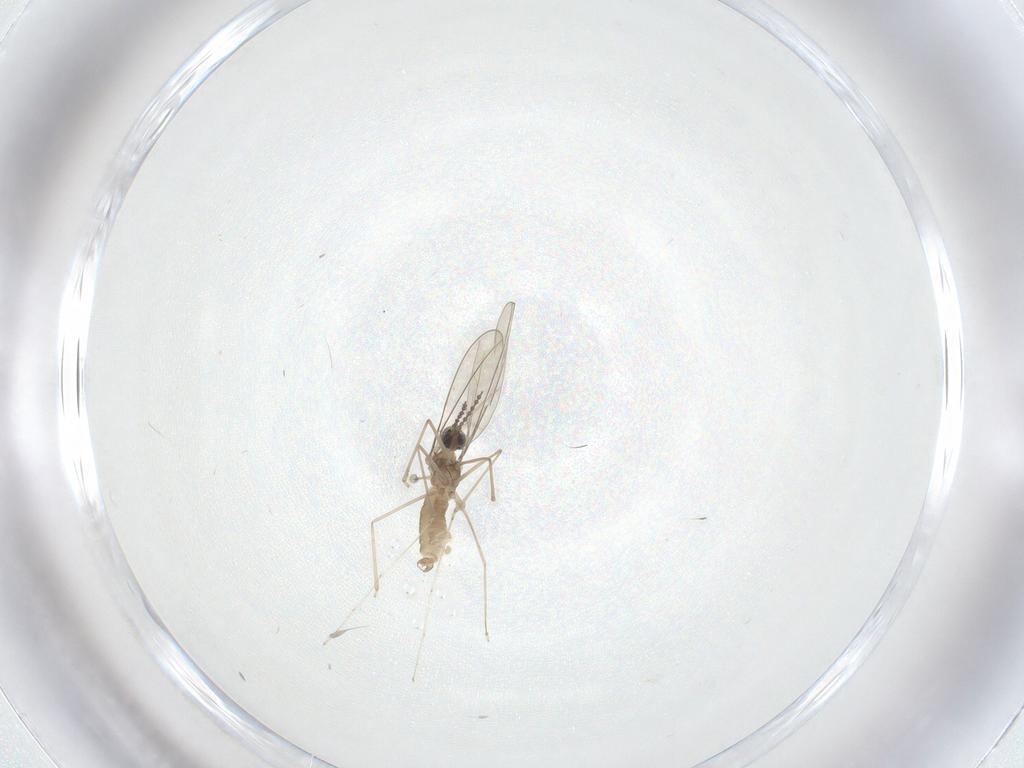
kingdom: Animalia
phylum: Arthropoda
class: Insecta
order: Diptera
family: Cecidomyiidae
